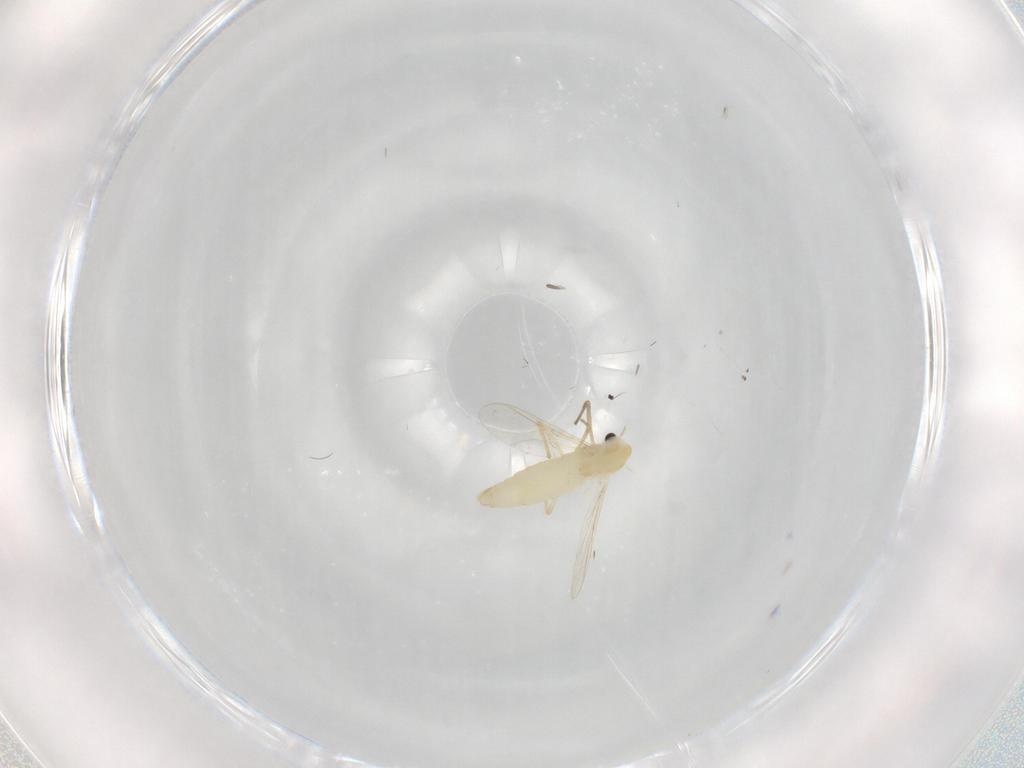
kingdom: Animalia
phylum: Arthropoda
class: Insecta
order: Diptera
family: Chironomidae
